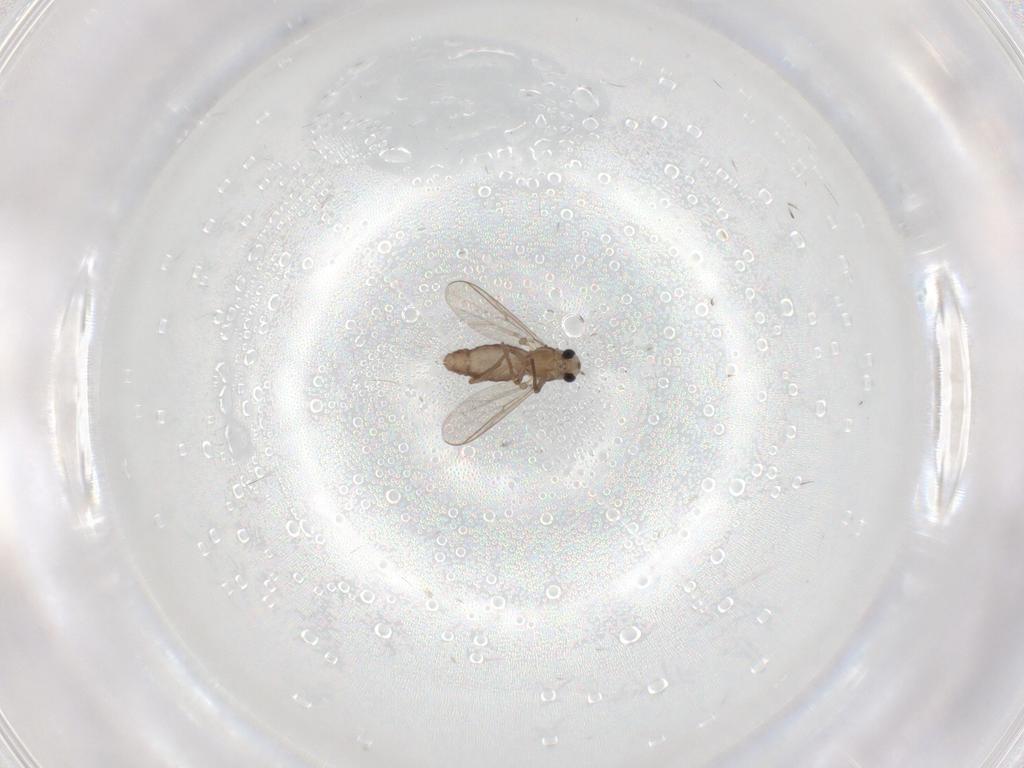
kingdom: Animalia
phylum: Arthropoda
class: Insecta
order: Diptera
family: Chironomidae
